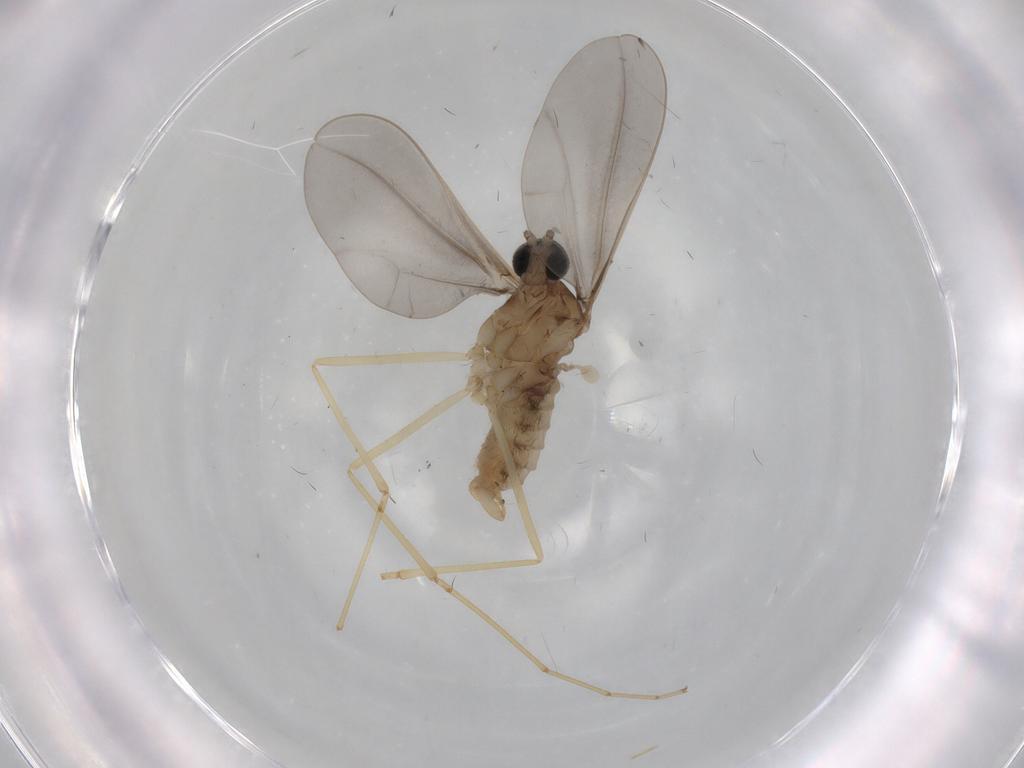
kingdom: Animalia
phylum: Arthropoda
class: Insecta
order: Diptera
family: Cecidomyiidae
